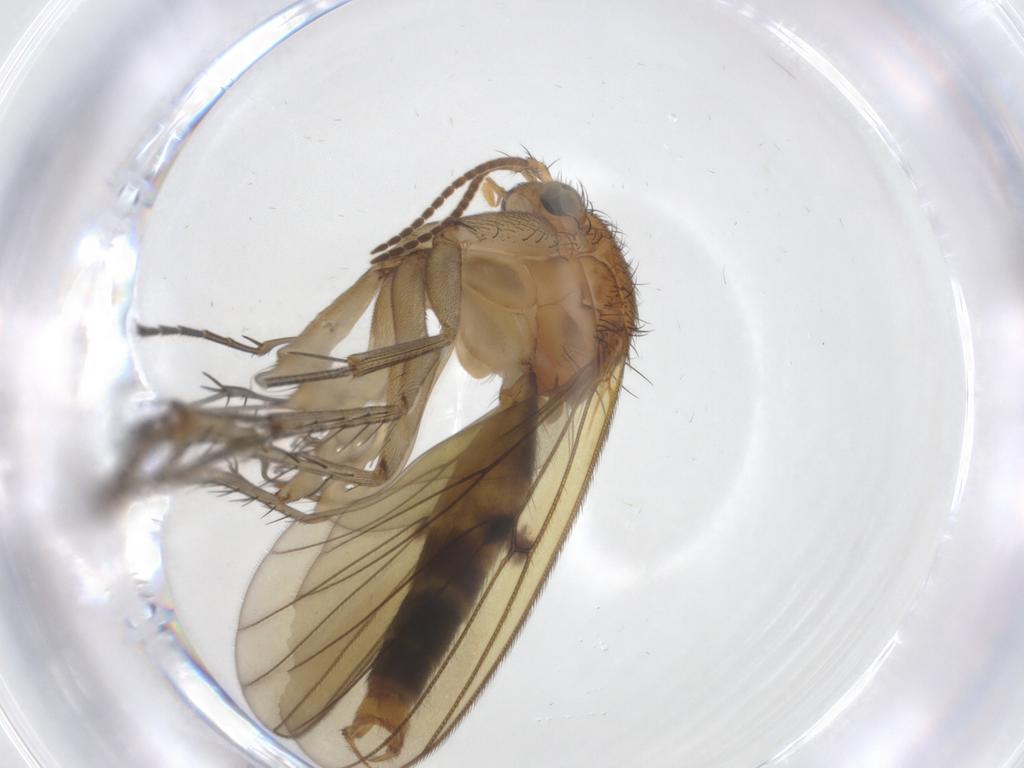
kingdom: Animalia
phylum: Arthropoda
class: Insecta
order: Diptera
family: Phoridae
